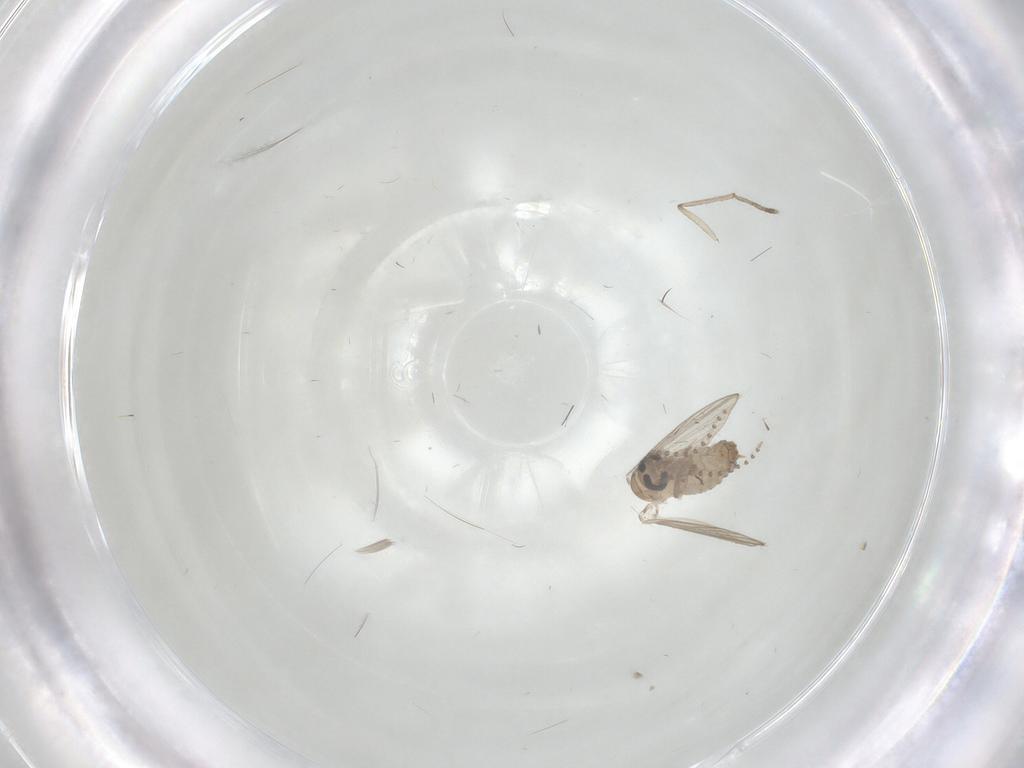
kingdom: Animalia
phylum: Arthropoda
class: Insecta
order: Diptera
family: Psychodidae
